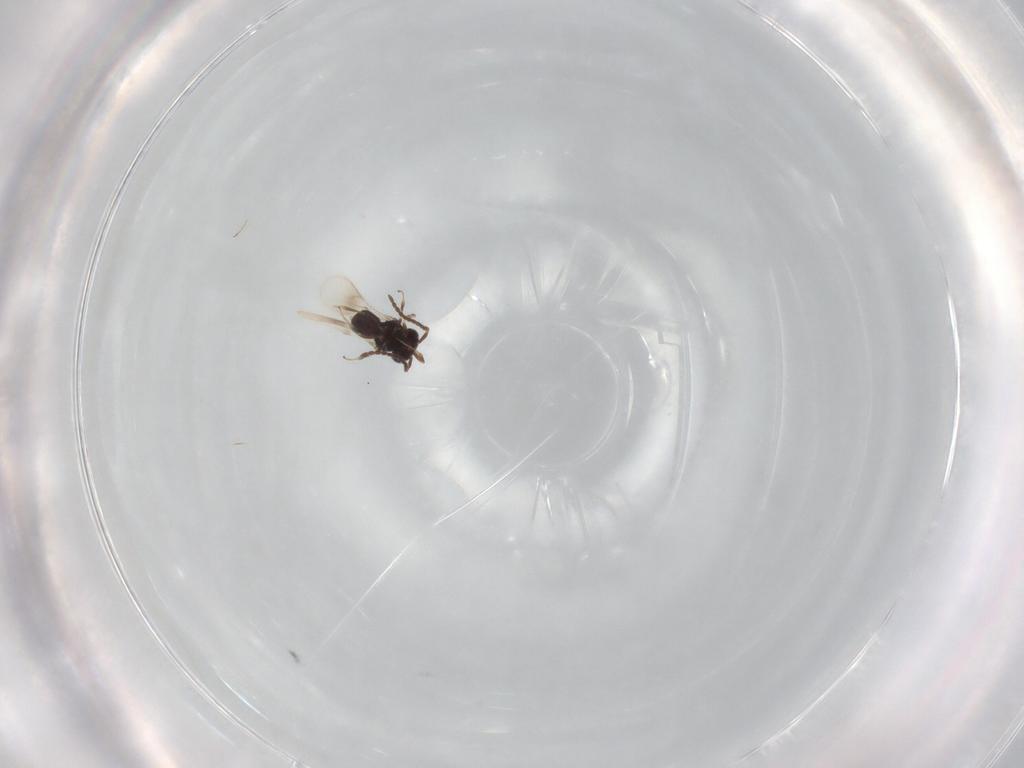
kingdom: Animalia
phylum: Arthropoda
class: Insecta
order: Hymenoptera
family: Platygastridae
